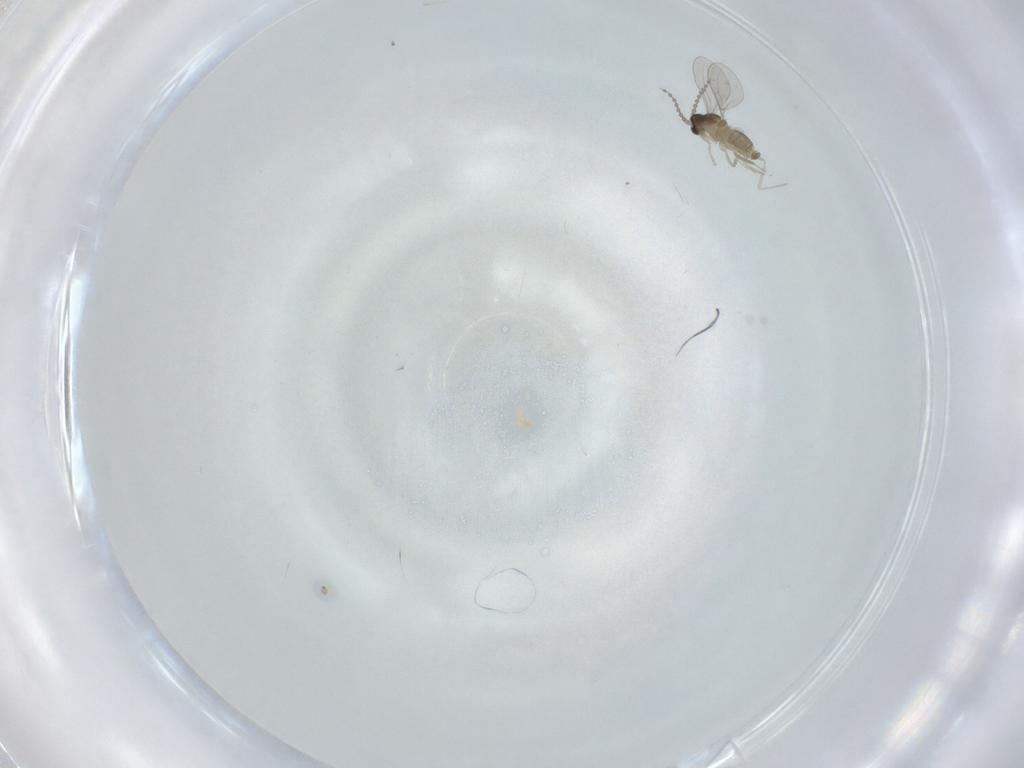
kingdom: Animalia
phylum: Arthropoda
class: Insecta
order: Diptera
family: Cecidomyiidae
